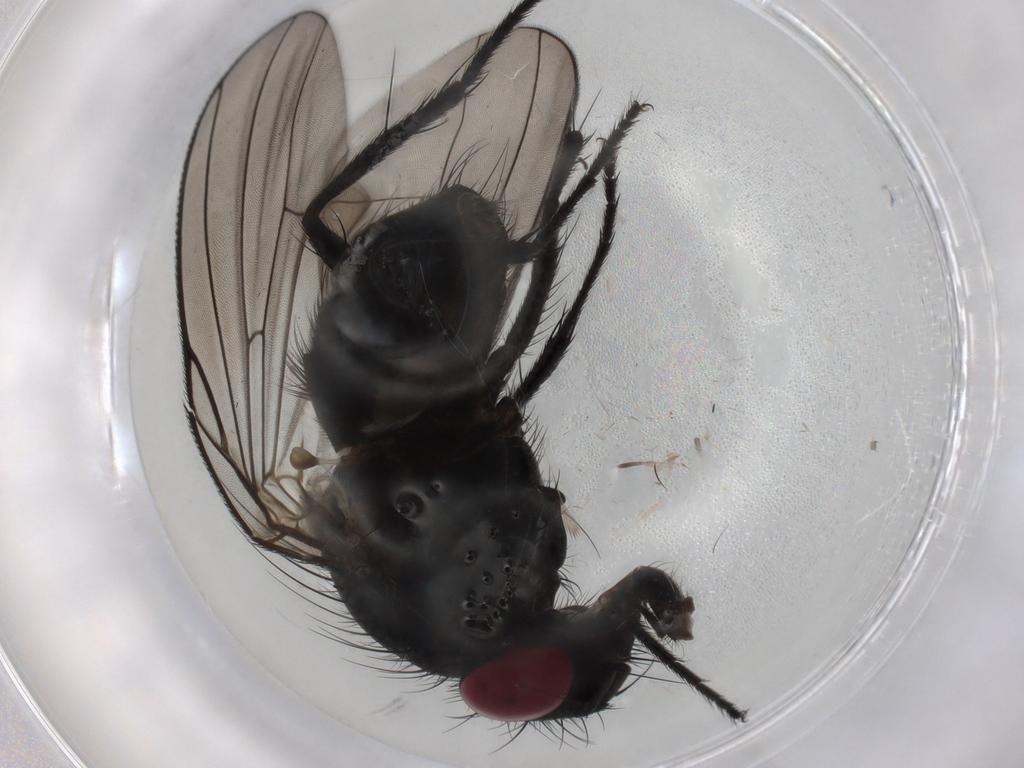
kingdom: Animalia
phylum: Arthropoda
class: Insecta
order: Diptera
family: Fannia
